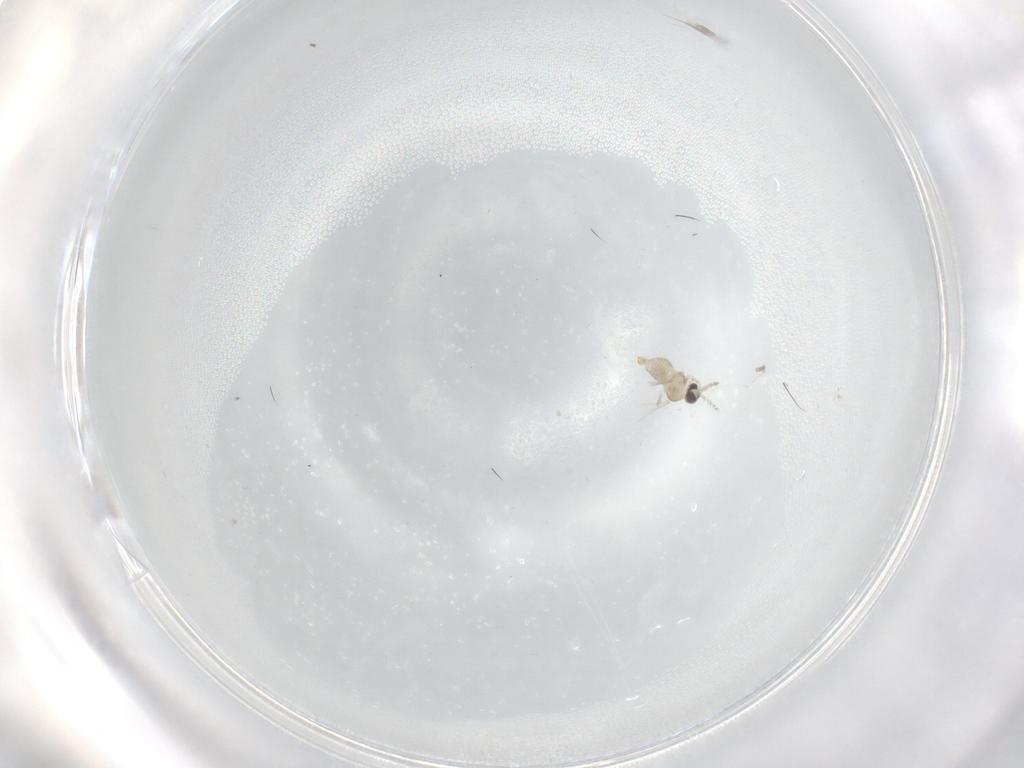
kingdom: Animalia
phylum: Arthropoda
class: Insecta
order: Diptera
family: Cecidomyiidae
